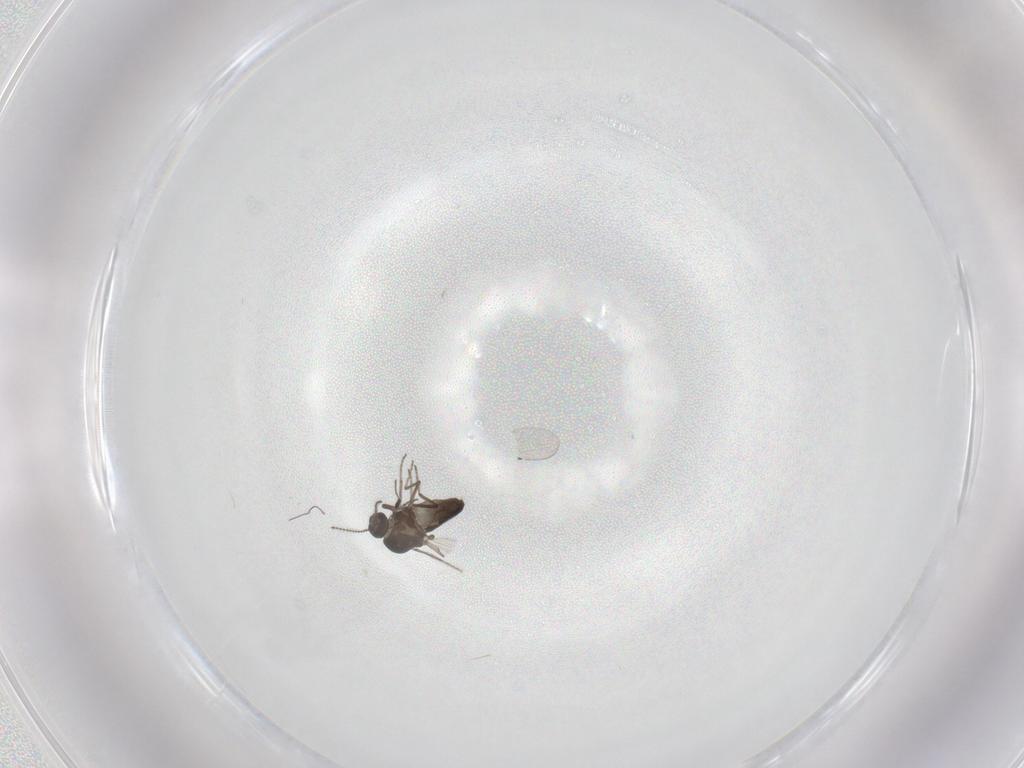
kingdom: Animalia
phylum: Arthropoda
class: Insecta
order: Diptera
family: Ceratopogonidae
